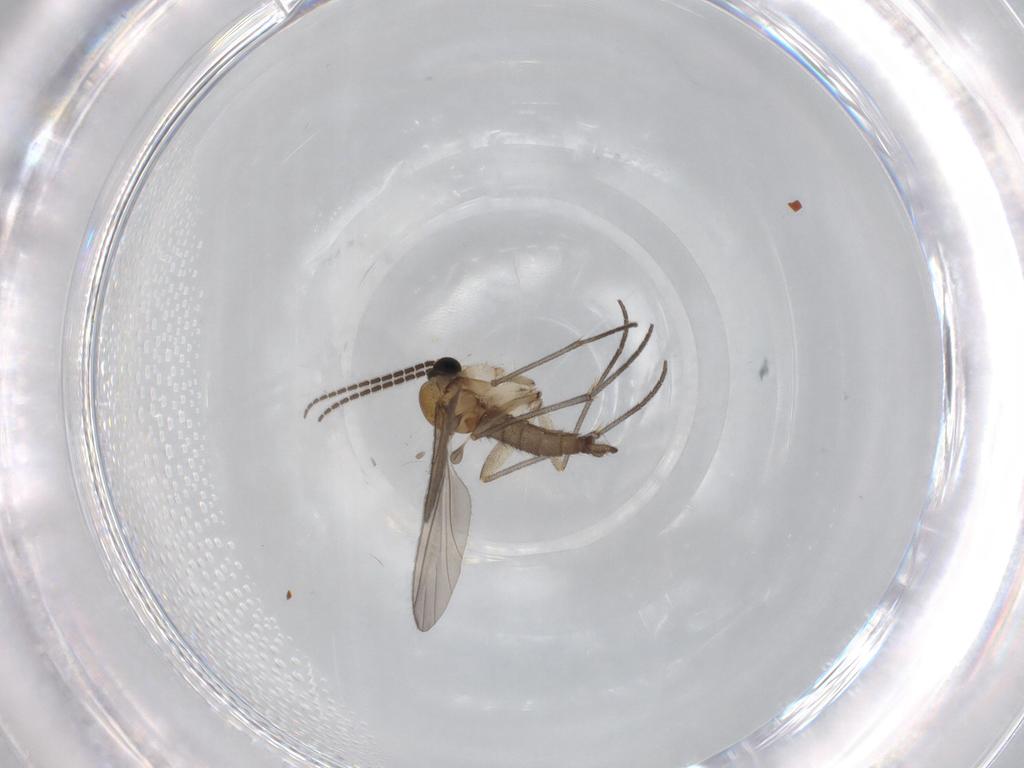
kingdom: Animalia
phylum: Arthropoda
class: Insecta
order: Diptera
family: Sciaridae
